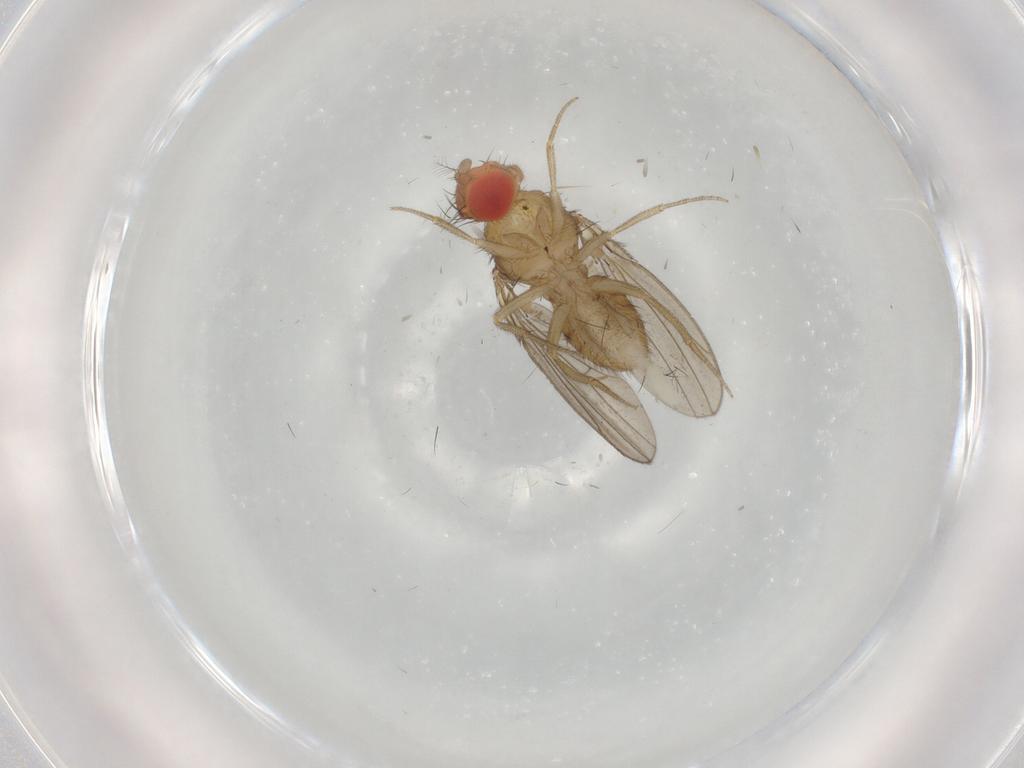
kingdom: Animalia
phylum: Arthropoda
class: Insecta
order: Diptera
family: Drosophilidae
